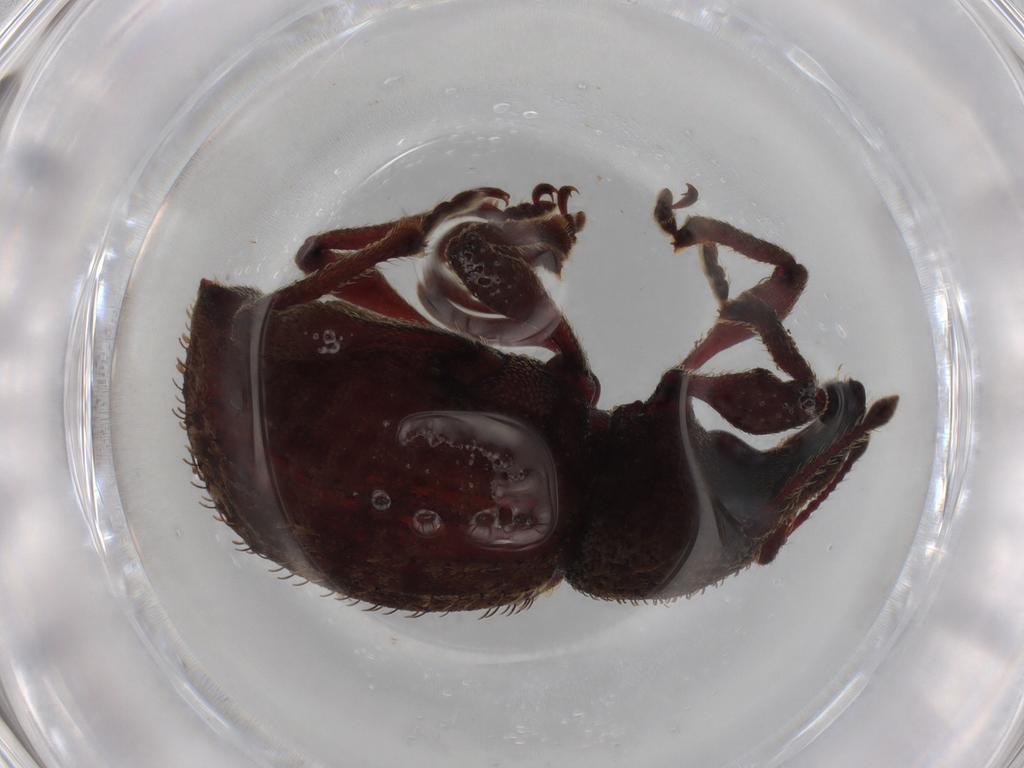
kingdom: Animalia
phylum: Arthropoda
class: Insecta
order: Coleoptera
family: Curculionidae
